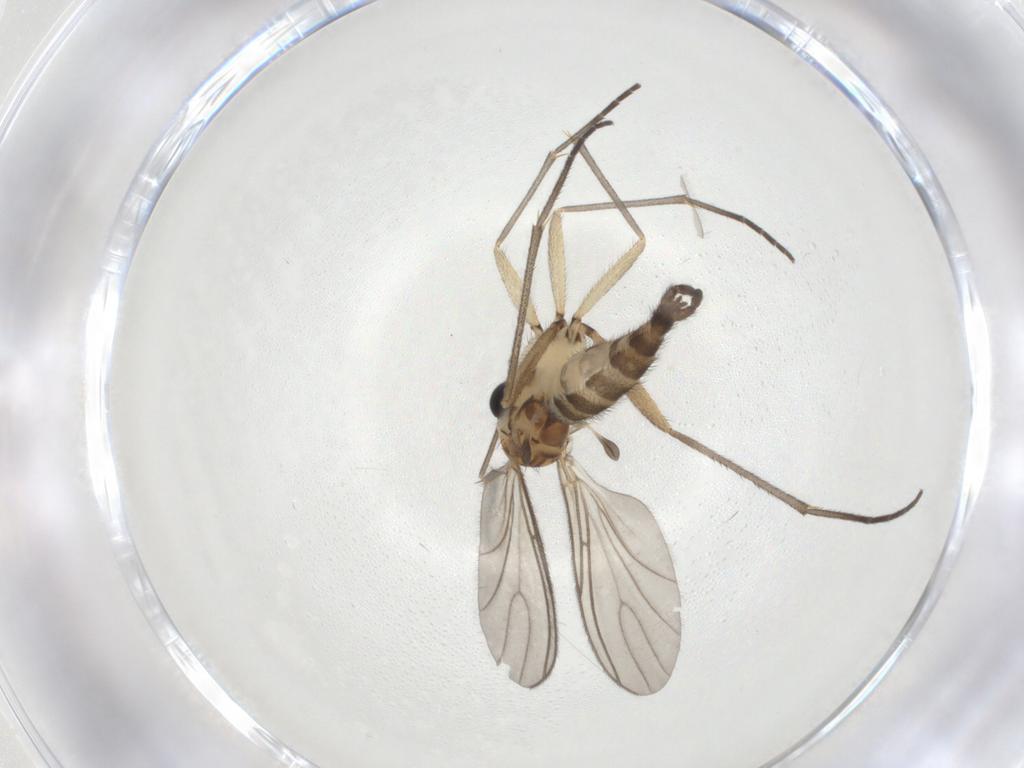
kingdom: Animalia
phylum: Arthropoda
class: Insecta
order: Diptera
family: Sciaridae
